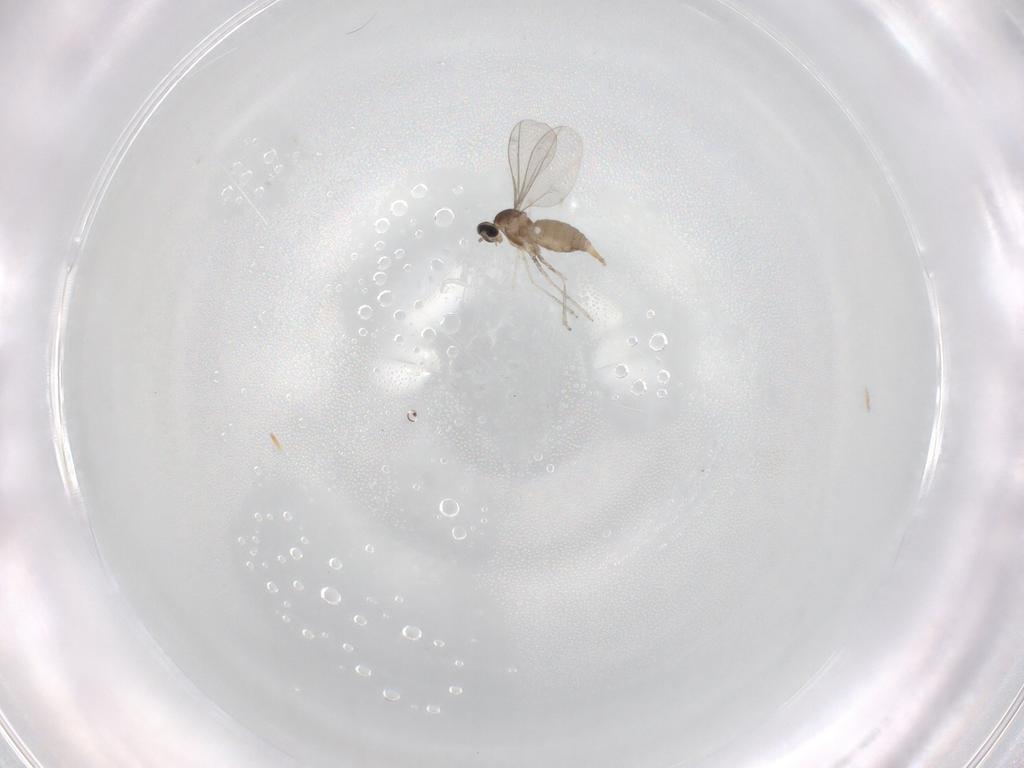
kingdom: Animalia
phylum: Arthropoda
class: Insecta
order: Diptera
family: Cecidomyiidae
